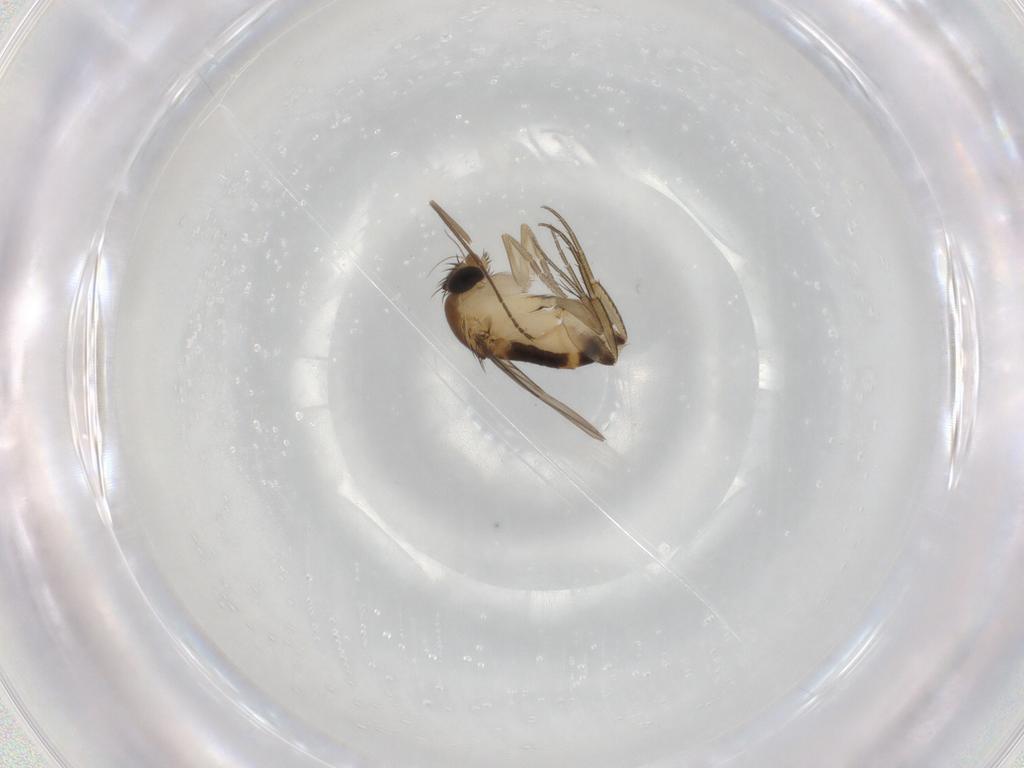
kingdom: Animalia
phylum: Arthropoda
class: Insecta
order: Diptera
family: Cecidomyiidae
